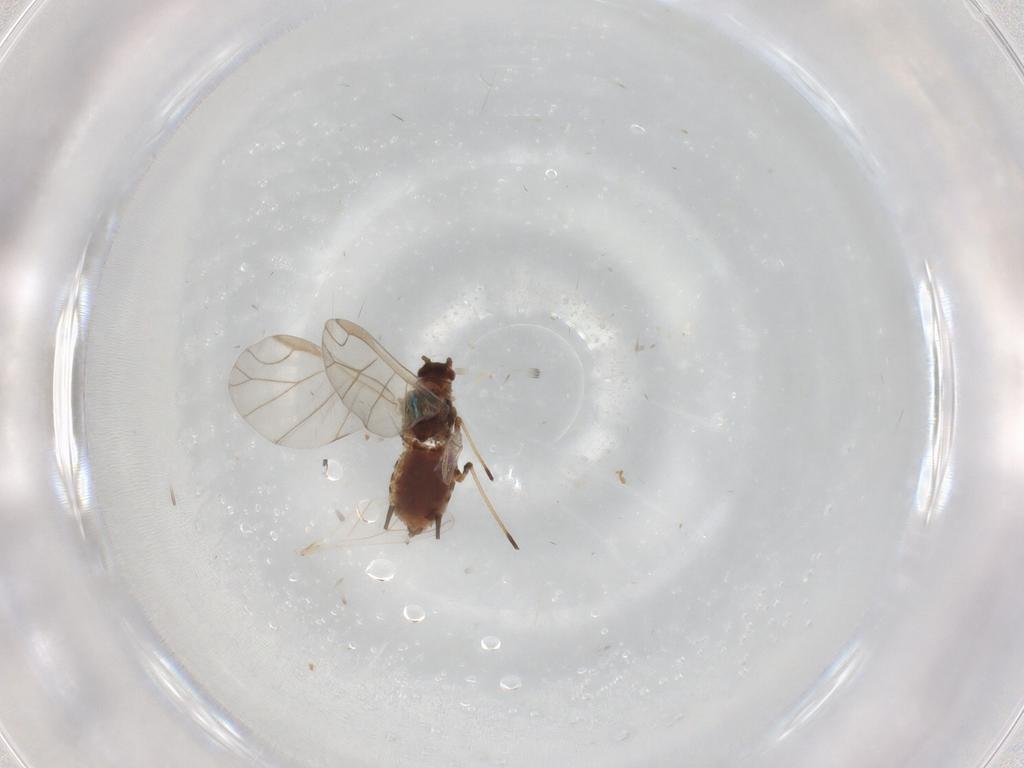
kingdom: Animalia
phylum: Arthropoda
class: Insecta
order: Hemiptera
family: Aphididae
